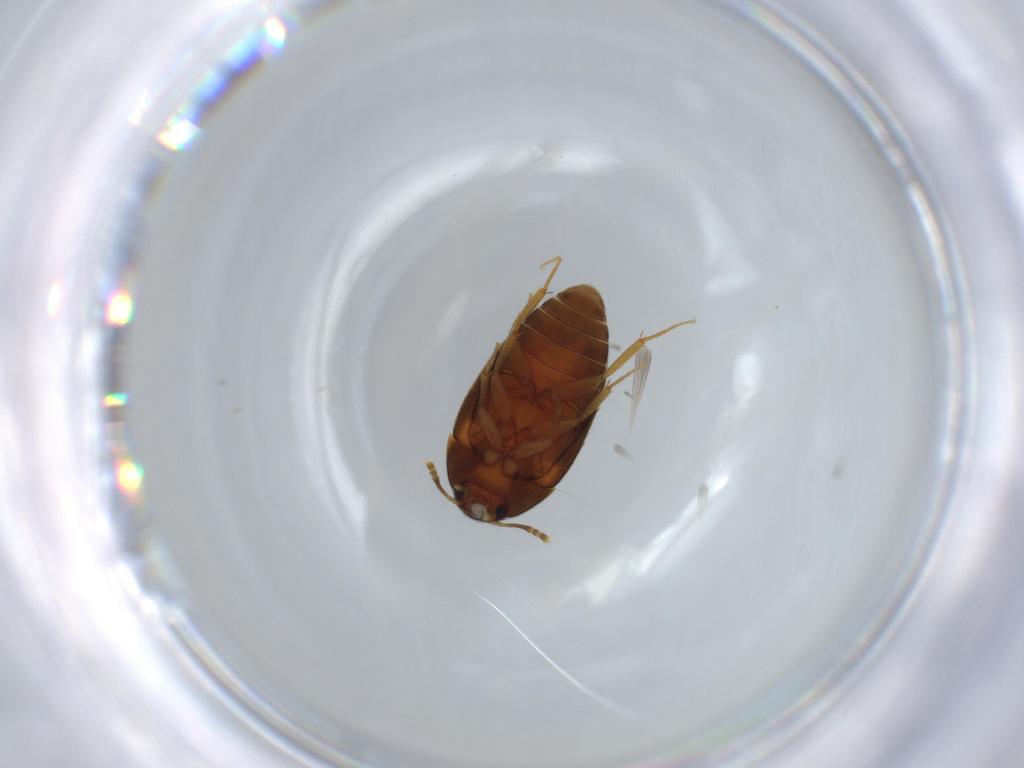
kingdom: Animalia
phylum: Arthropoda
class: Insecta
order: Coleoptera
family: Mycetophagidae
